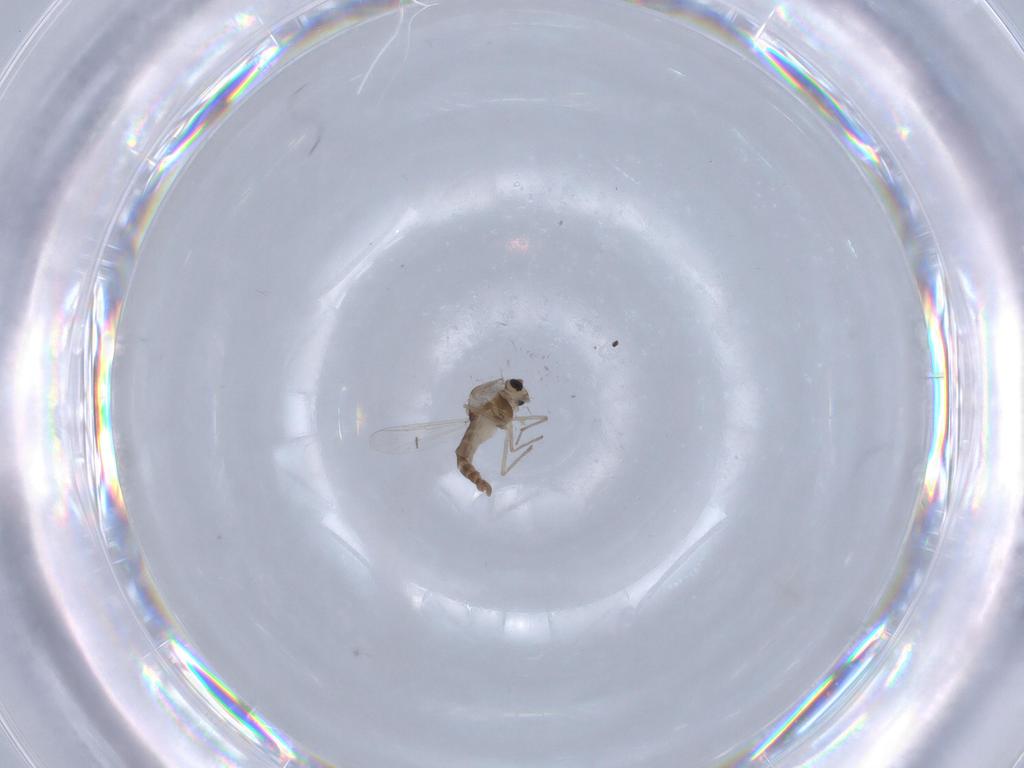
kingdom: Animalia
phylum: Arthropoda
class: Insecta
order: Diptera
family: Chironomidae
